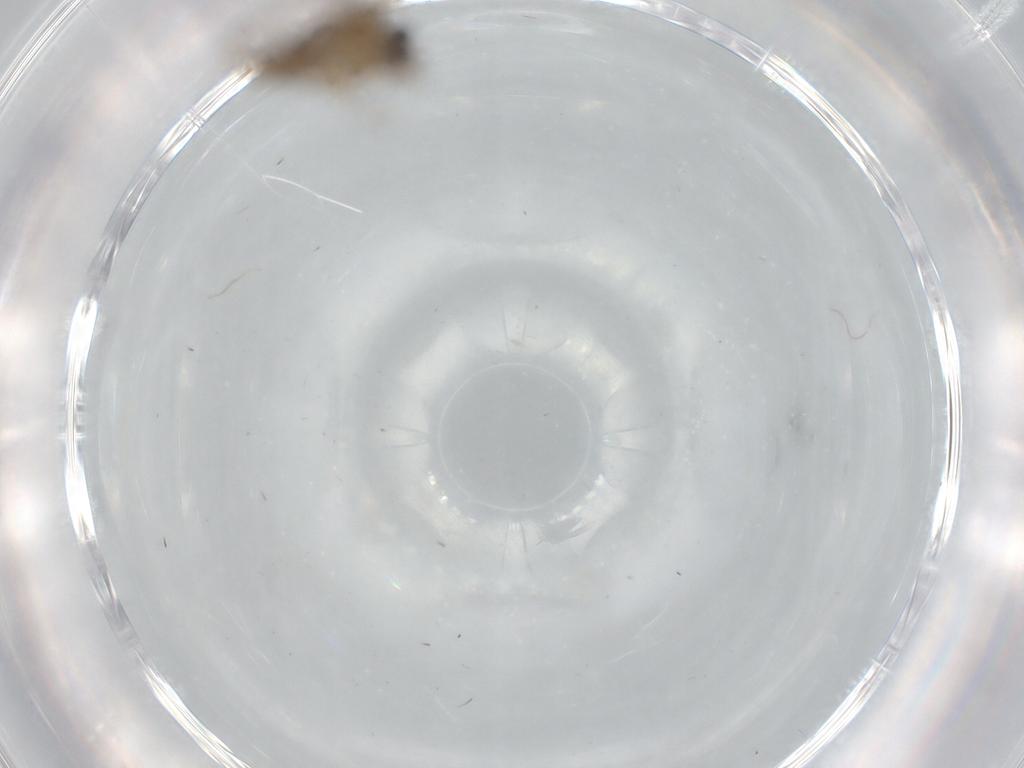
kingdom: Animalia
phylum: Arthropoda
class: Insecta
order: Diptera
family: Ceratopogonidae
